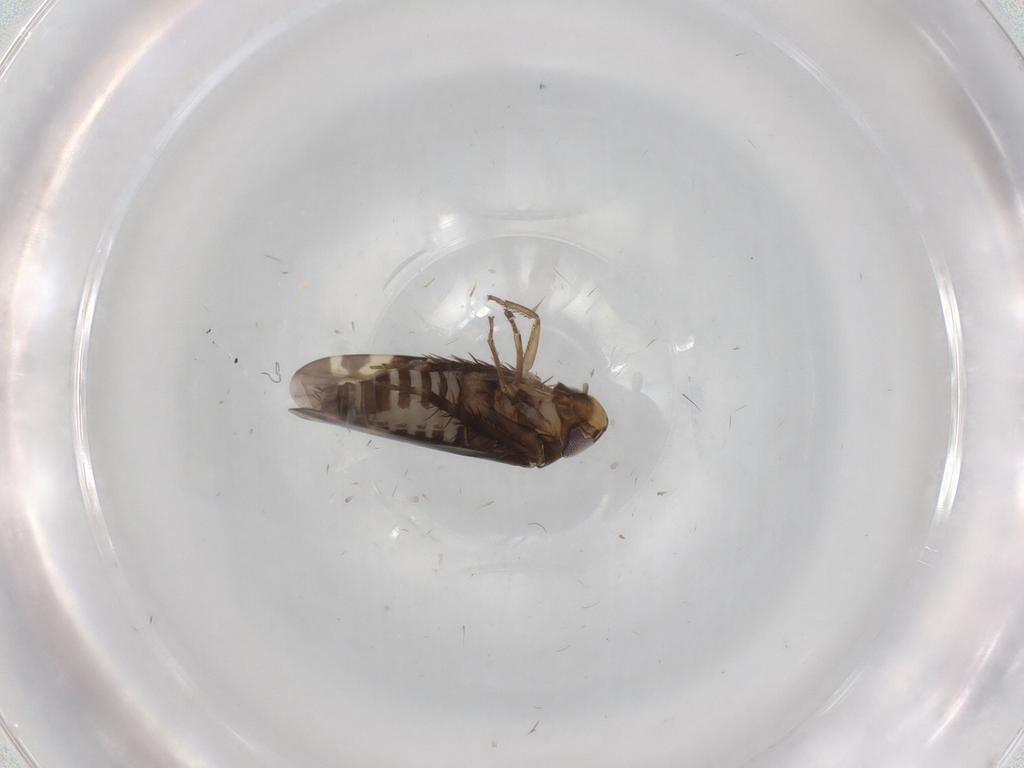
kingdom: Animalia
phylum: Arthropoda
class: Insecta
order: Hemiptera
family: Cicadellidae
